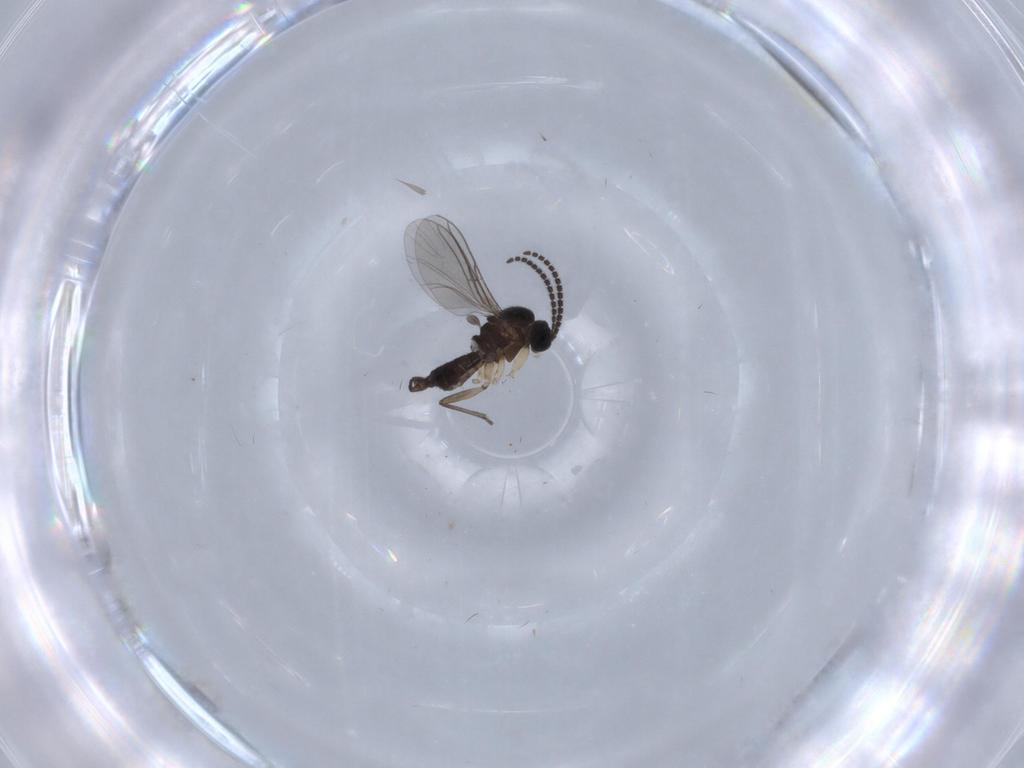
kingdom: Animalia
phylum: Arthropoda
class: Insecta
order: Diptera
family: Sciaridae
